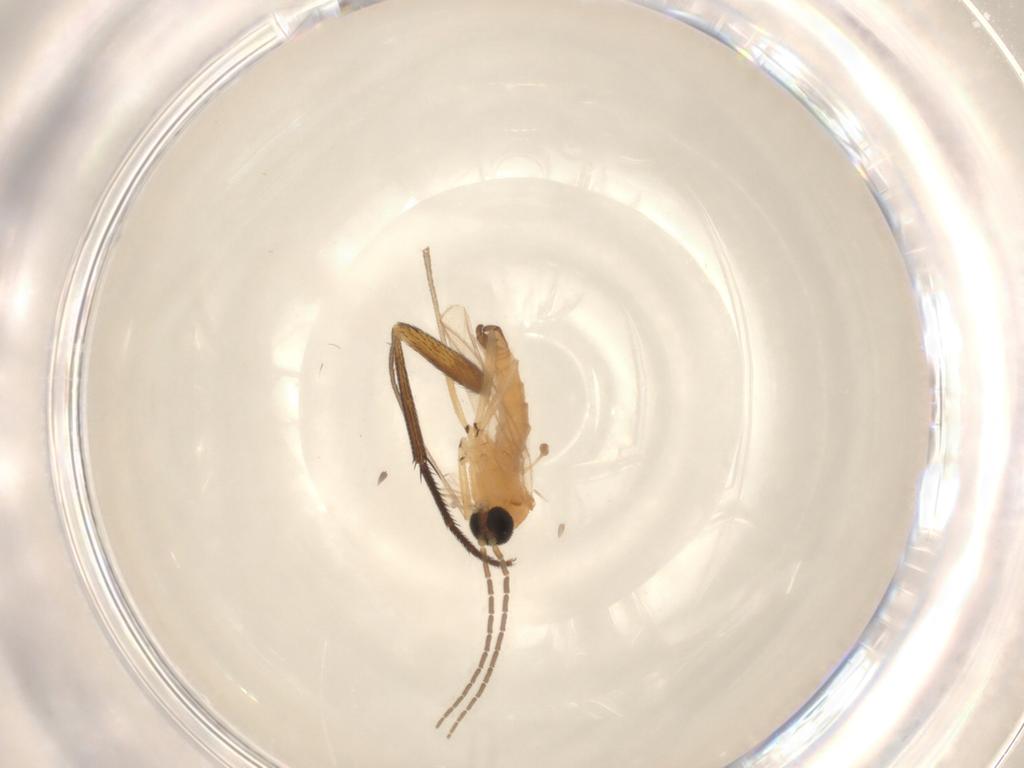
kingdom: Animalia
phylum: Arthropoda
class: Insecta
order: Diptera
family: Sciaridae
